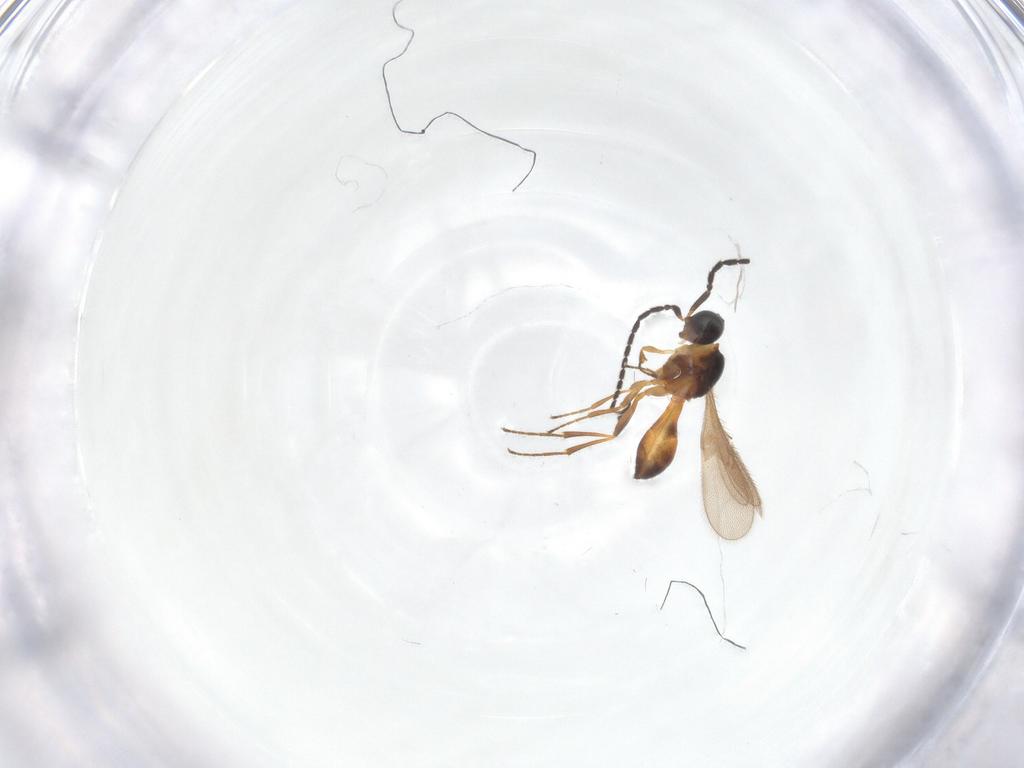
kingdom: Animalia
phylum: Arthropoda
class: Insecta
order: Hymenoptera
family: Scelionidae
